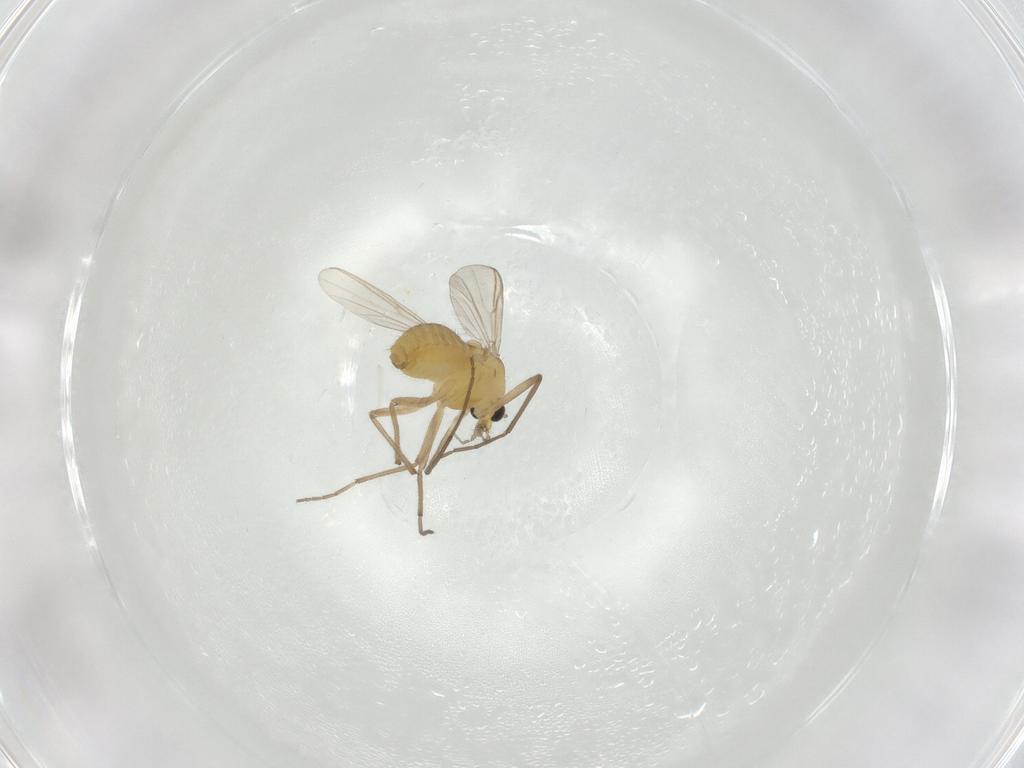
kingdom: Animalia
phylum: Arthropoda
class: Insecta
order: Diptera
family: Chironomidae
